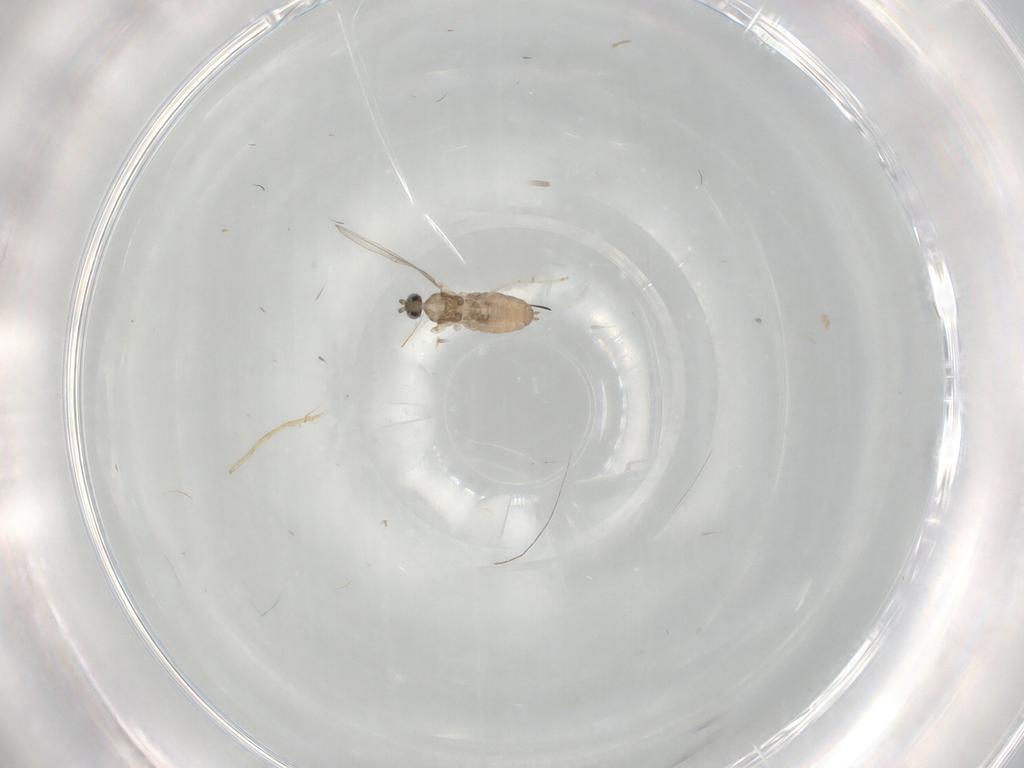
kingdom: Animalia
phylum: Arthropoda
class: Insecta
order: Diptera
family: Cecidomyiidae
